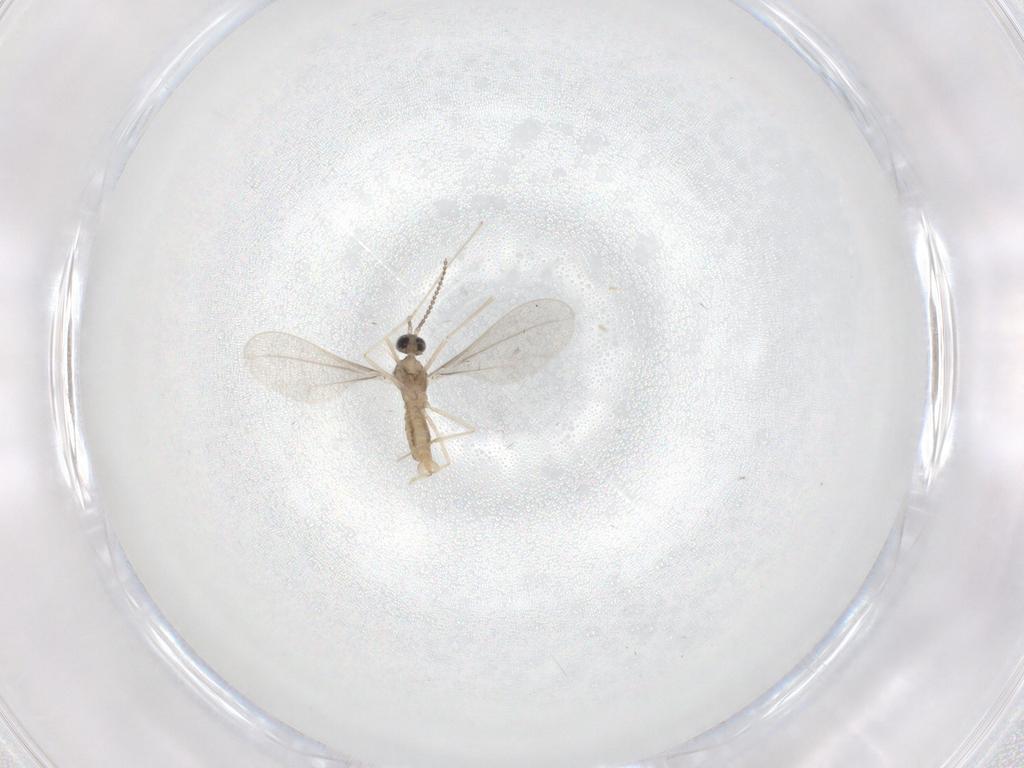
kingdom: Animalia
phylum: Arthropoda
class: Insecta
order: Diptera
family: Cecidomyiidae
